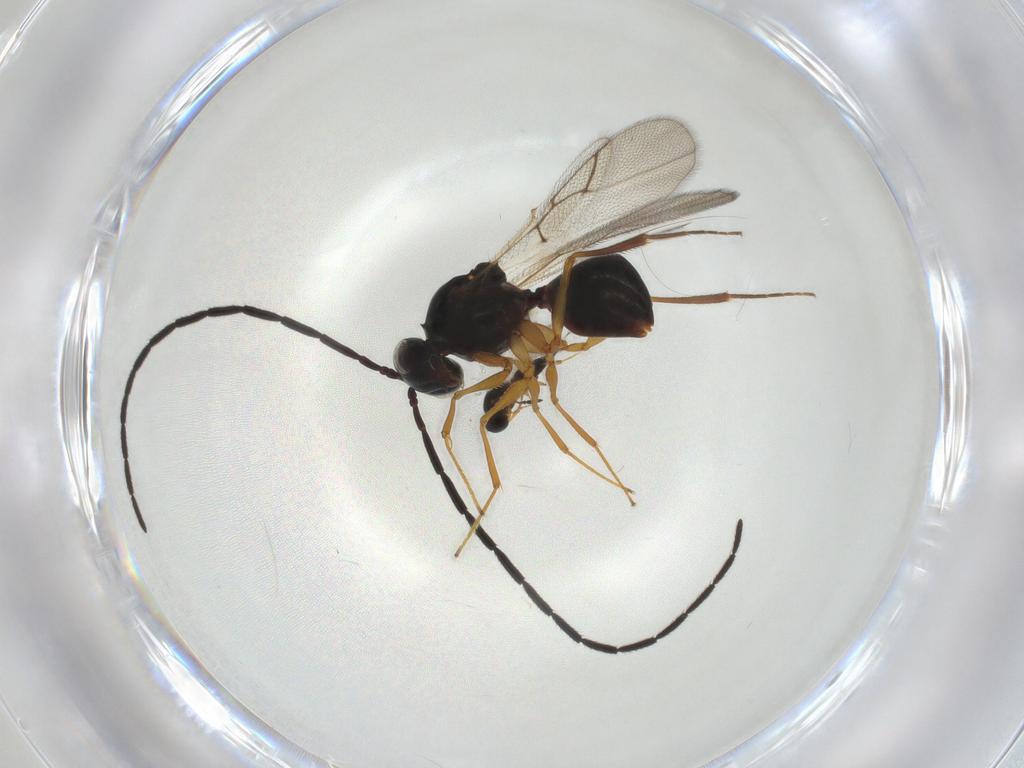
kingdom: Animalia
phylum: Arthropoda
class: Insecta
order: Hymenoptera
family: Figitidae
